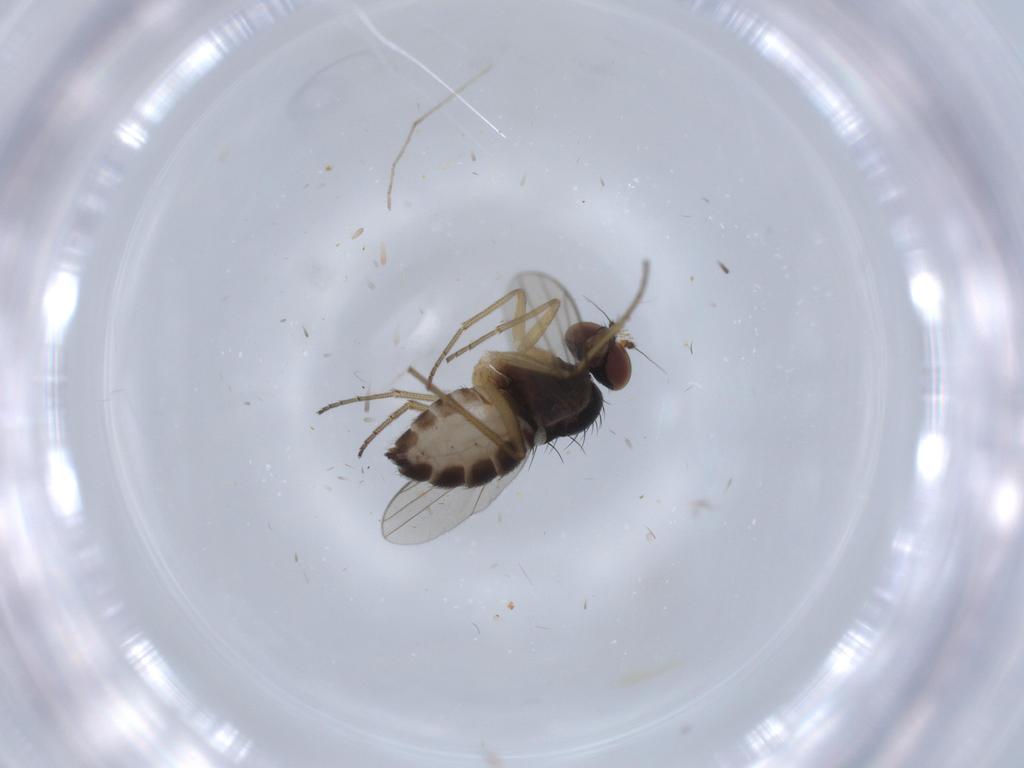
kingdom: Animalia
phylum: Arthropoda
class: Insecta
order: Diptera
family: Dolichopodidae
